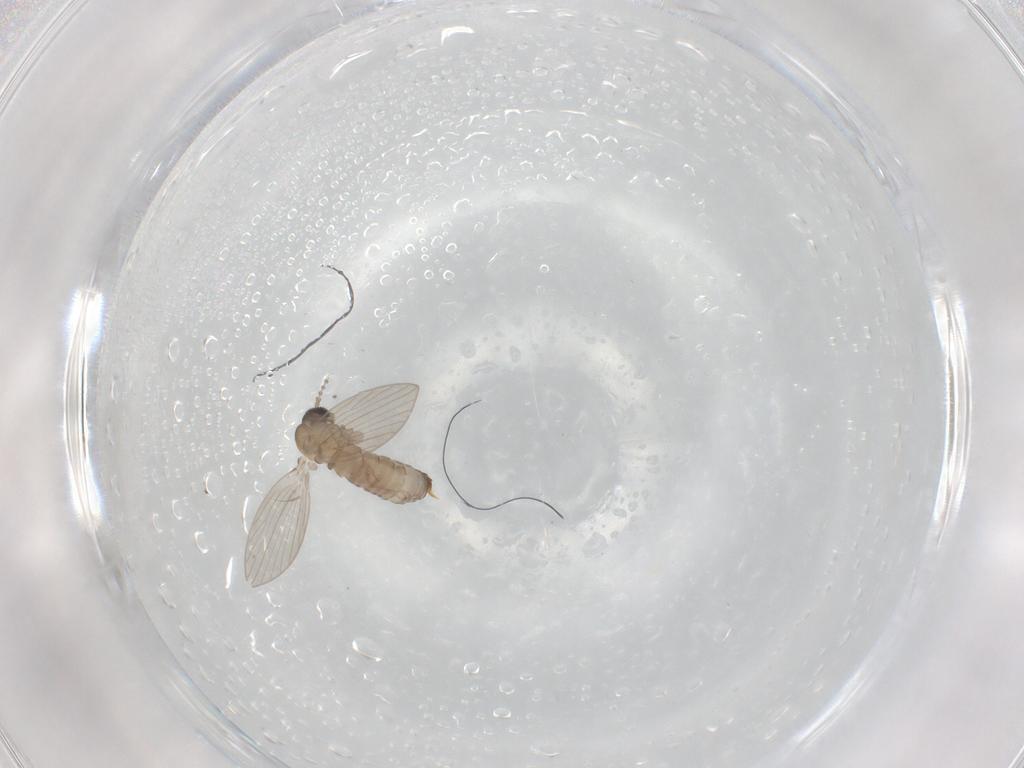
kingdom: Animalia
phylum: Arthropoda
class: Insecta
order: Diptera
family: Psychodidae
